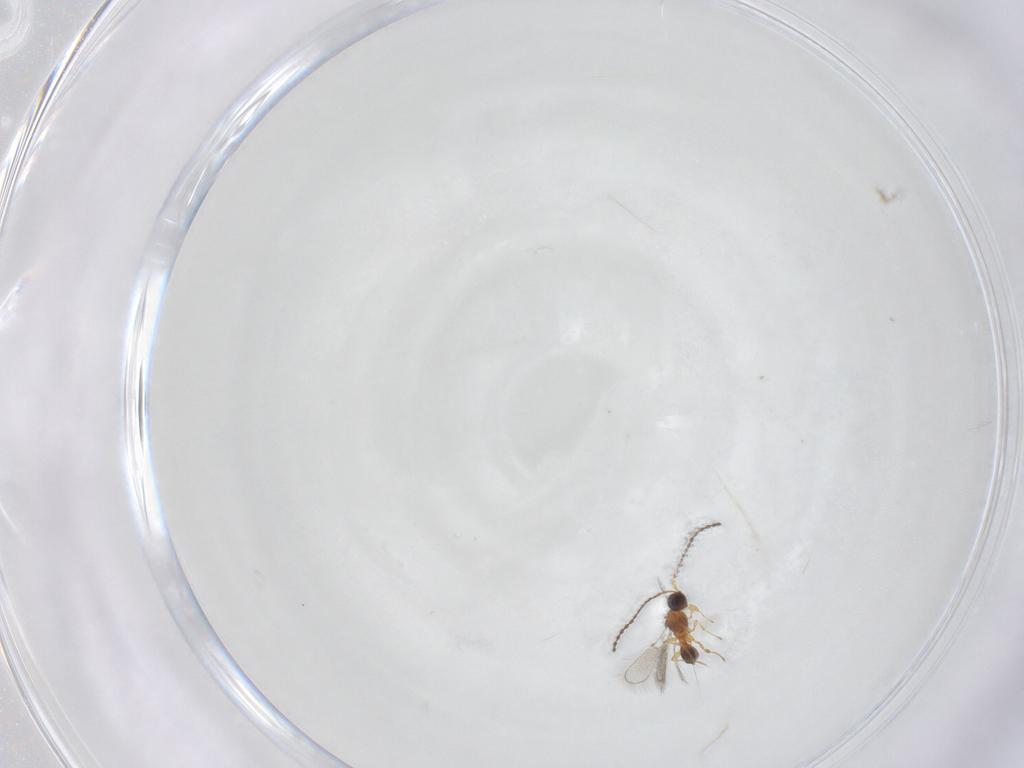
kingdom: Animalia
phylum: Arthropoda
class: Insecta
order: Hymenoptera
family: Diapriidae
